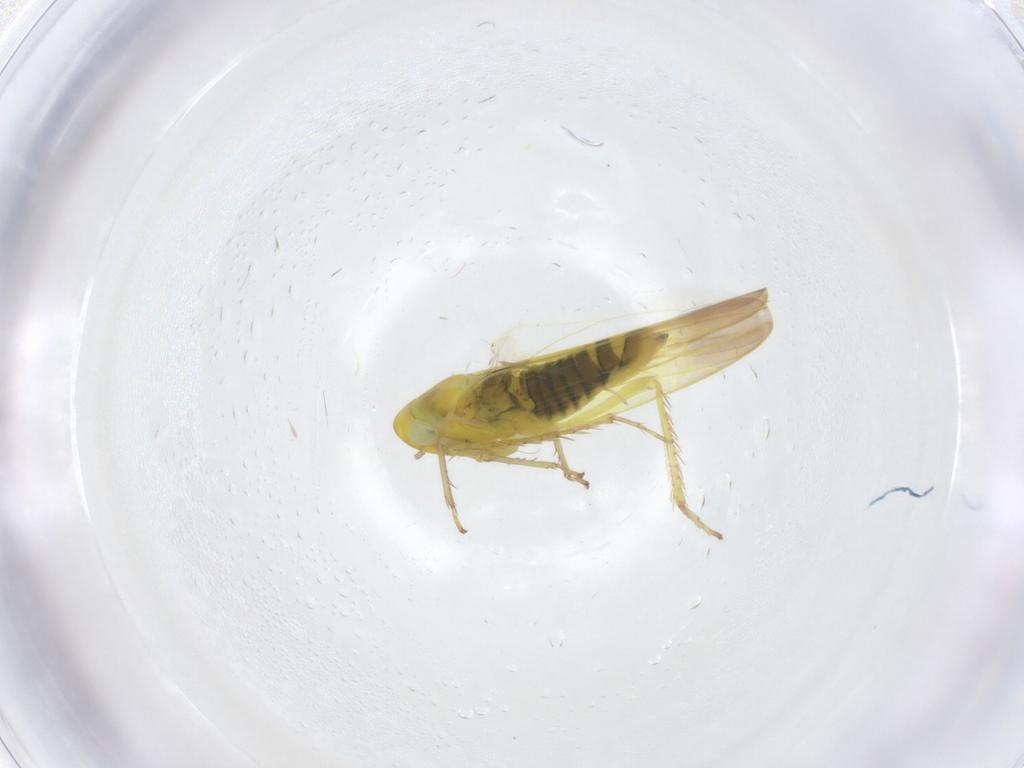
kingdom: Animalia
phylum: Arthropoda
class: Insecta
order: Hemiptera
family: Cicadellidae
